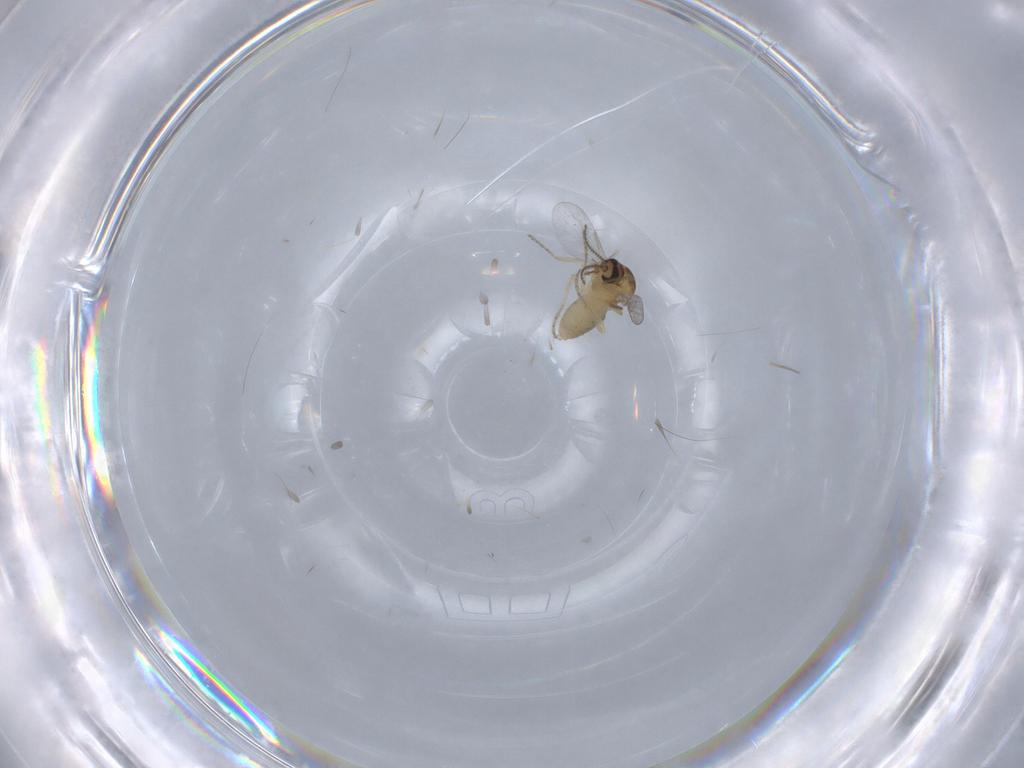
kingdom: Animalia
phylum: Arthropoda
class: Insecta
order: Diptera
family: Ceratopogonidae
